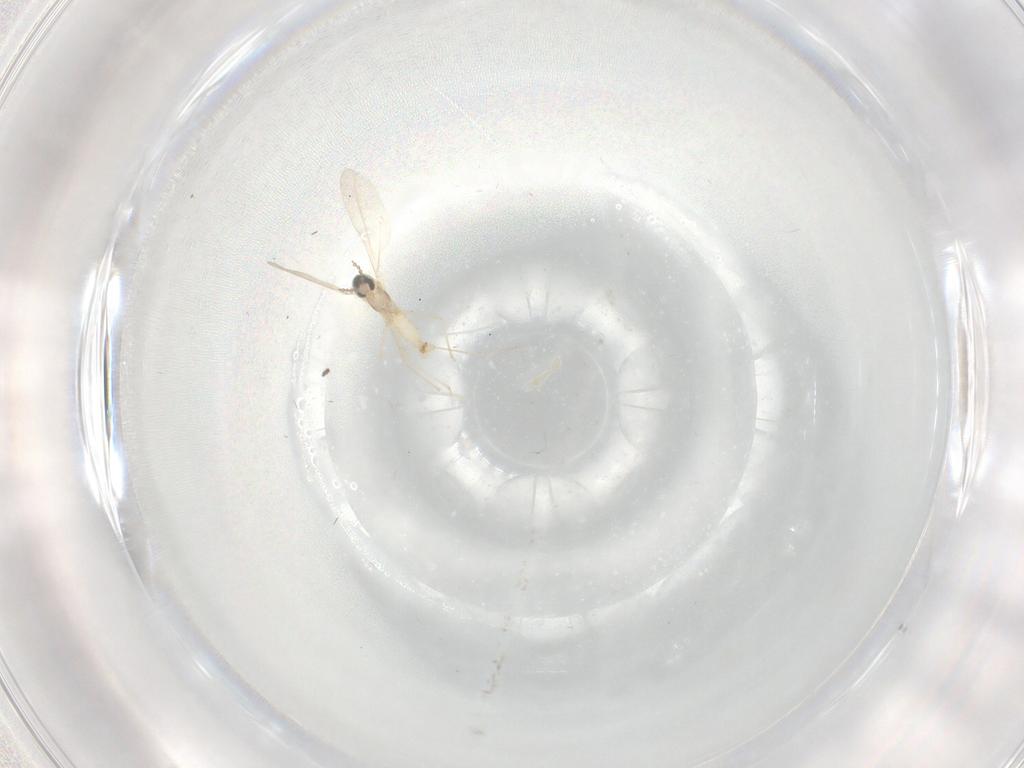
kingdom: Animalia
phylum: Arthropoda
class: Insecta
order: Diptera
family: Cecidomyiidae
